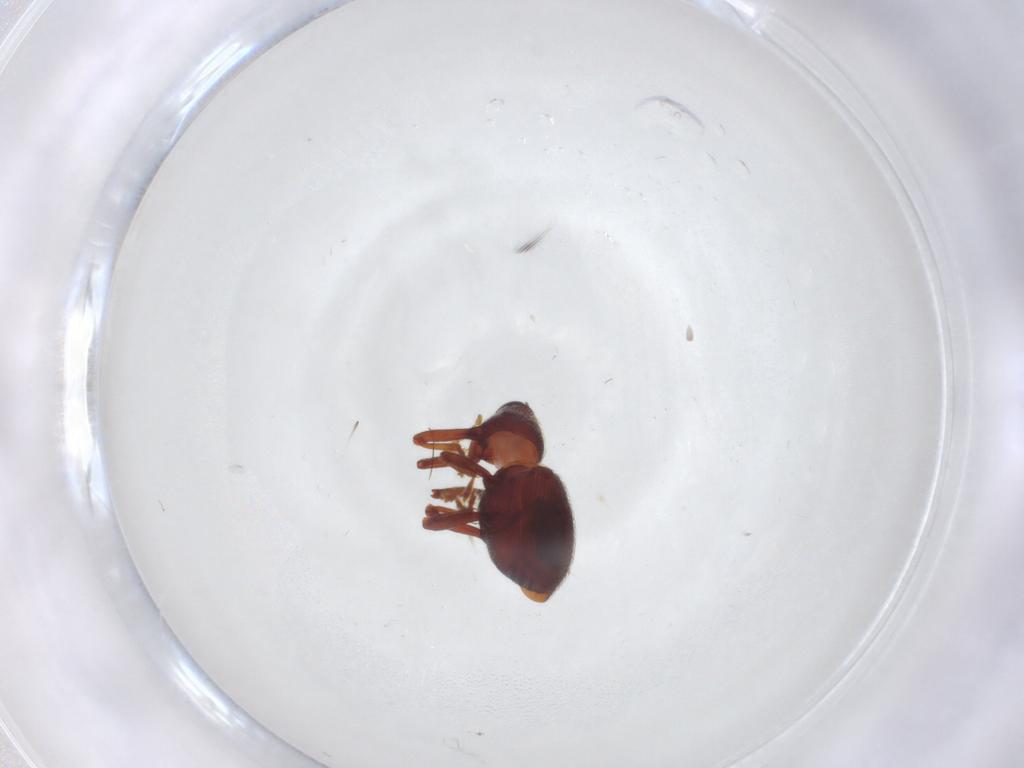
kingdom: Animalia
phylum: Arthropoda
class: Insecta
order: Coleoptera
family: Curculionidae
